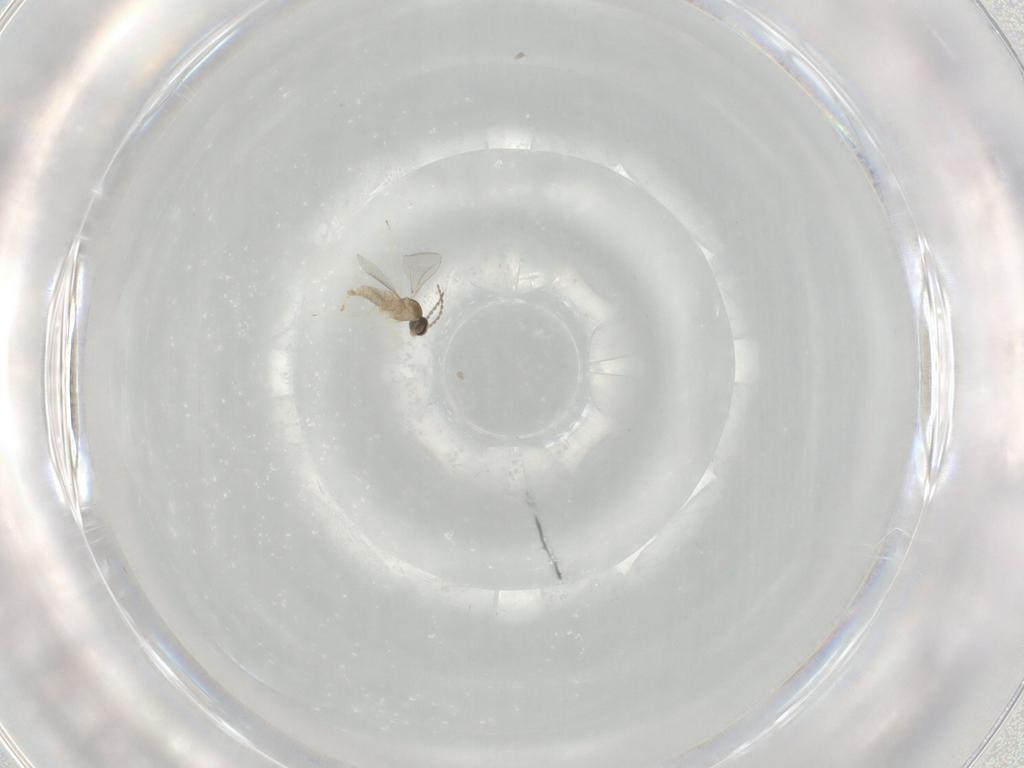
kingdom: Animalia
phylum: Arthropoda
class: Insecta
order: Diptera
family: Cecidomyiidae
